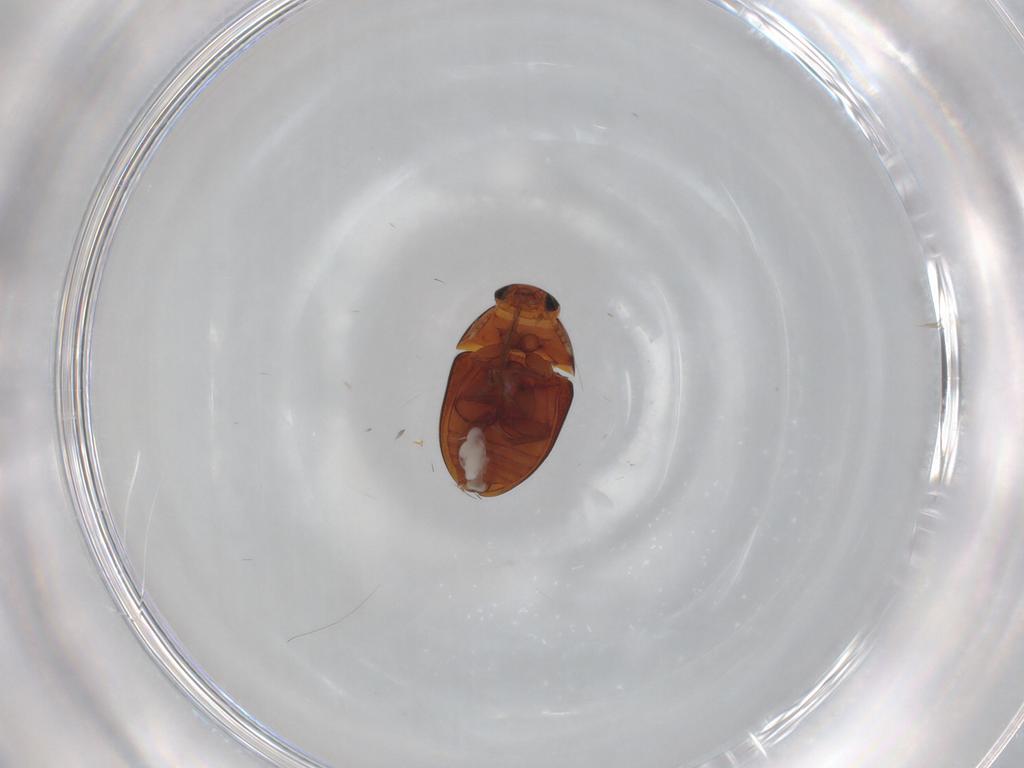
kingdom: Animalia
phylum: Arthropoda
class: Insecta
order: Coleoptera
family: Phalacridae
